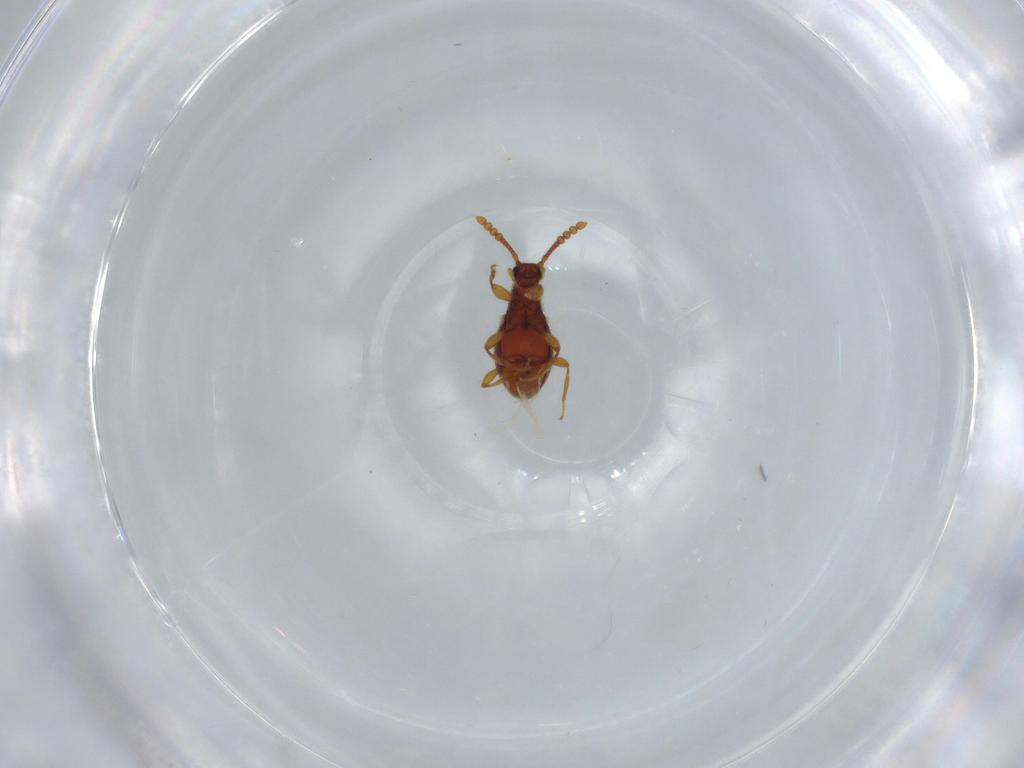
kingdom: Animalia
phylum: Arthropoda
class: Insecta
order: Coleoptera
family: Staphylinidae
